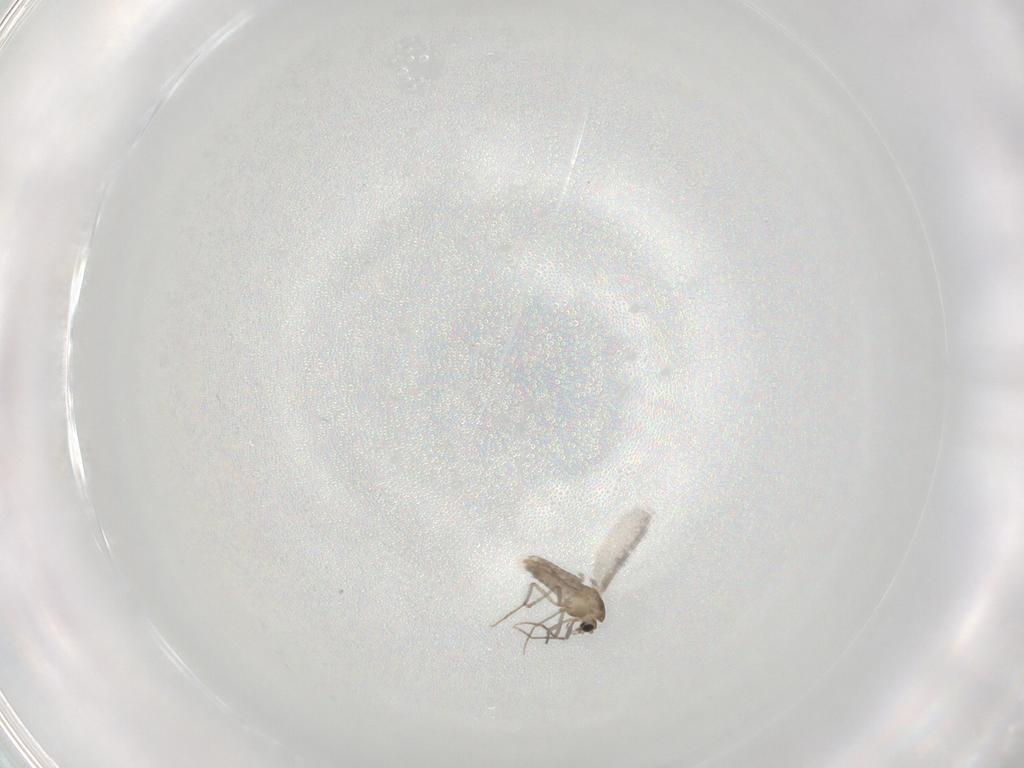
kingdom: Animalia
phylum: Arthropoda
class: Insecta
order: Diptera
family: Chironomidae
